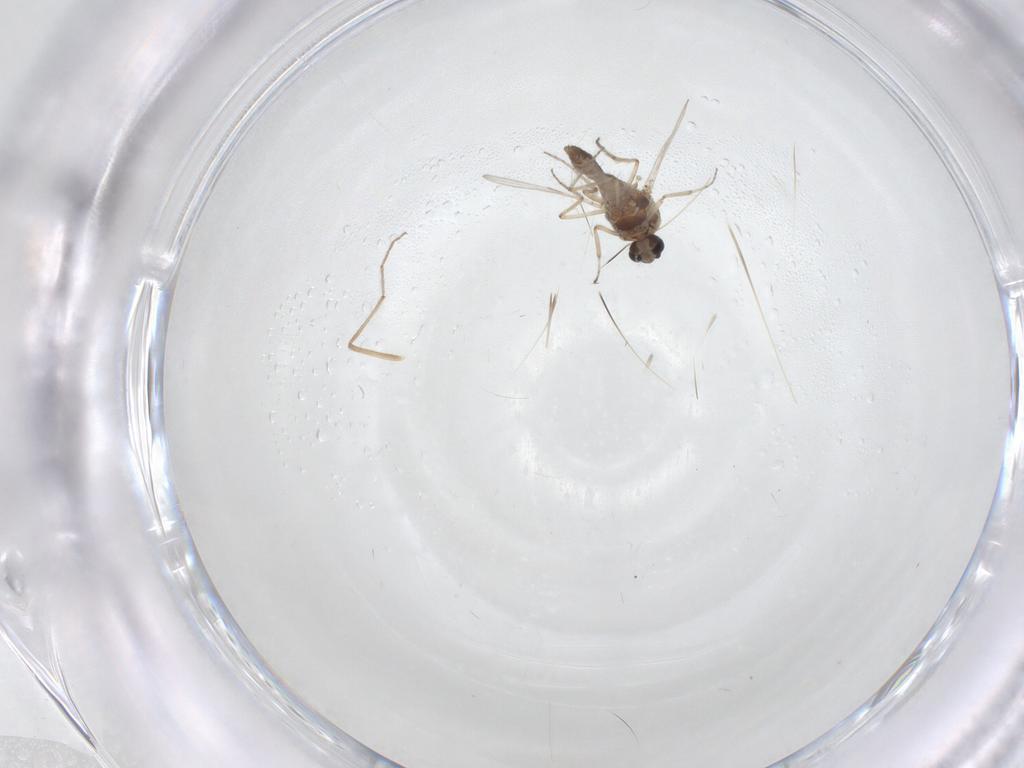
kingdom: Animalia
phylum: Arthropoda
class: Insecta
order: Diptera
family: Ceratopogonidae
